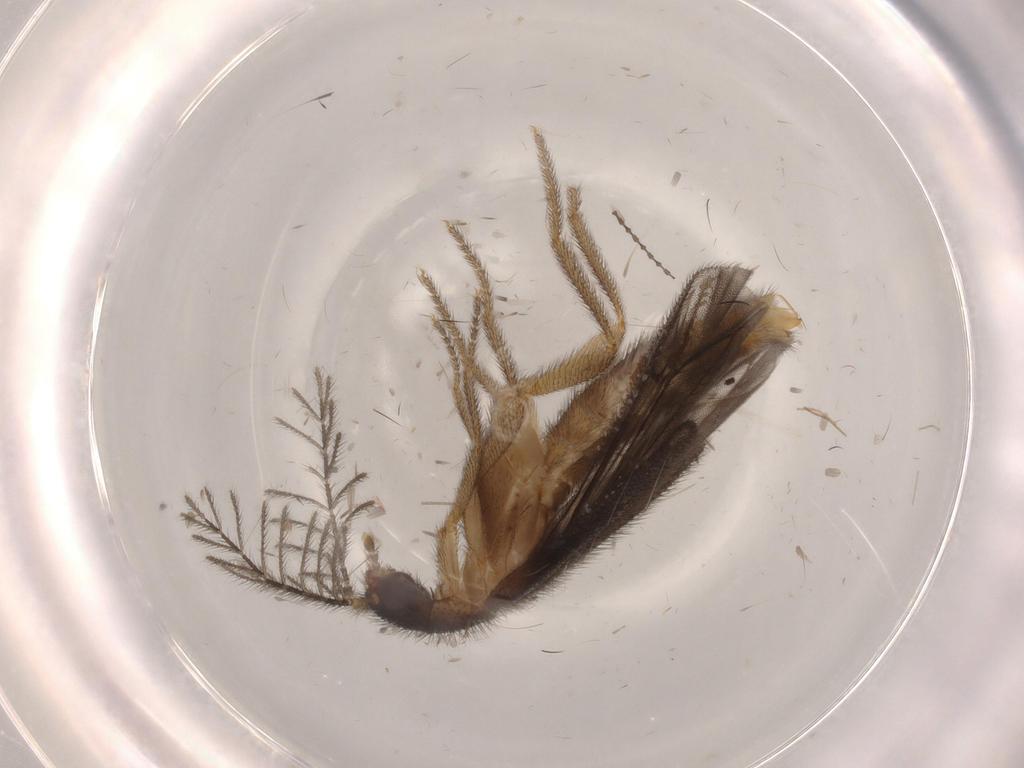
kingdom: Animalia
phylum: Arthropoda
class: Insecta
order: Coleoptera
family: Phengodidae
